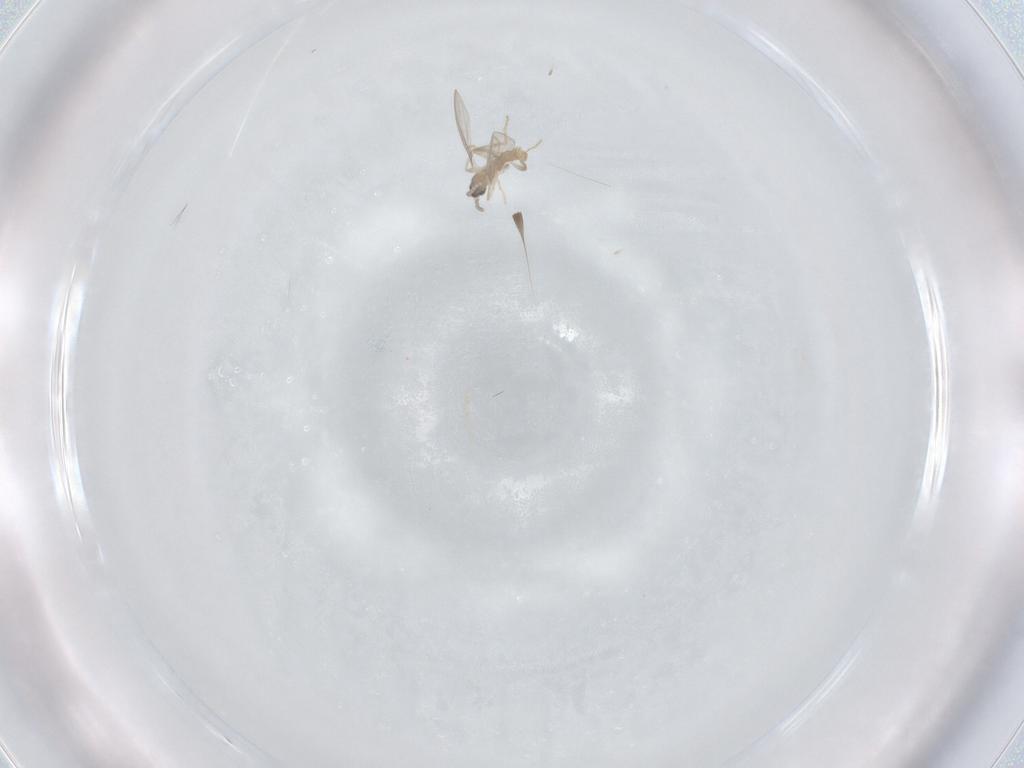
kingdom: Animalia
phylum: Arthropoda
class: Insecta
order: Diptera
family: Cecidomyiidae
